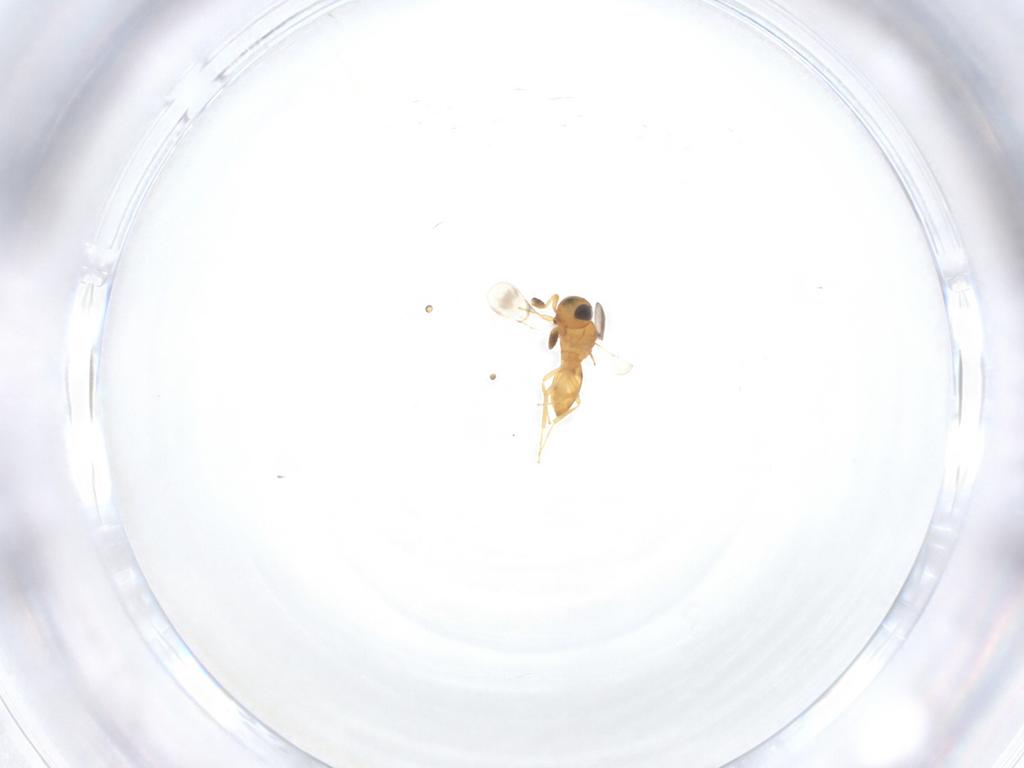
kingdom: Animalia
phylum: Arthropoda
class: Insecta
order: Hymenoptera
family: Scelionidae
